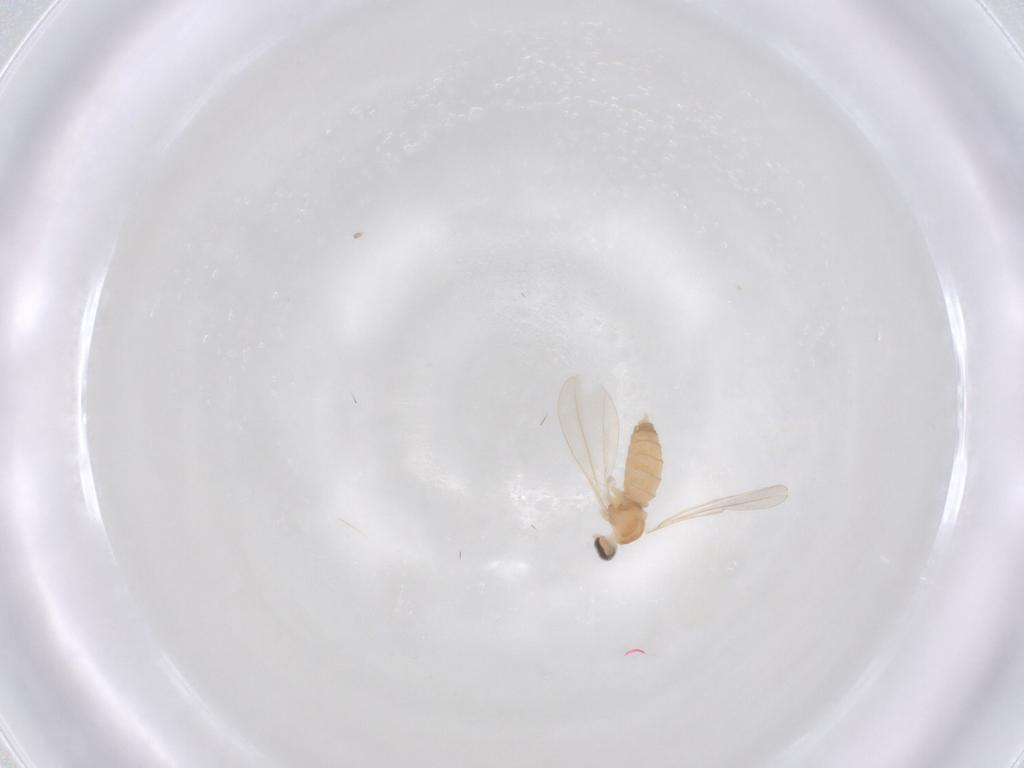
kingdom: Animalia
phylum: Arthropoda
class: Insecta
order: Diptera
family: Cecidomyiidae
